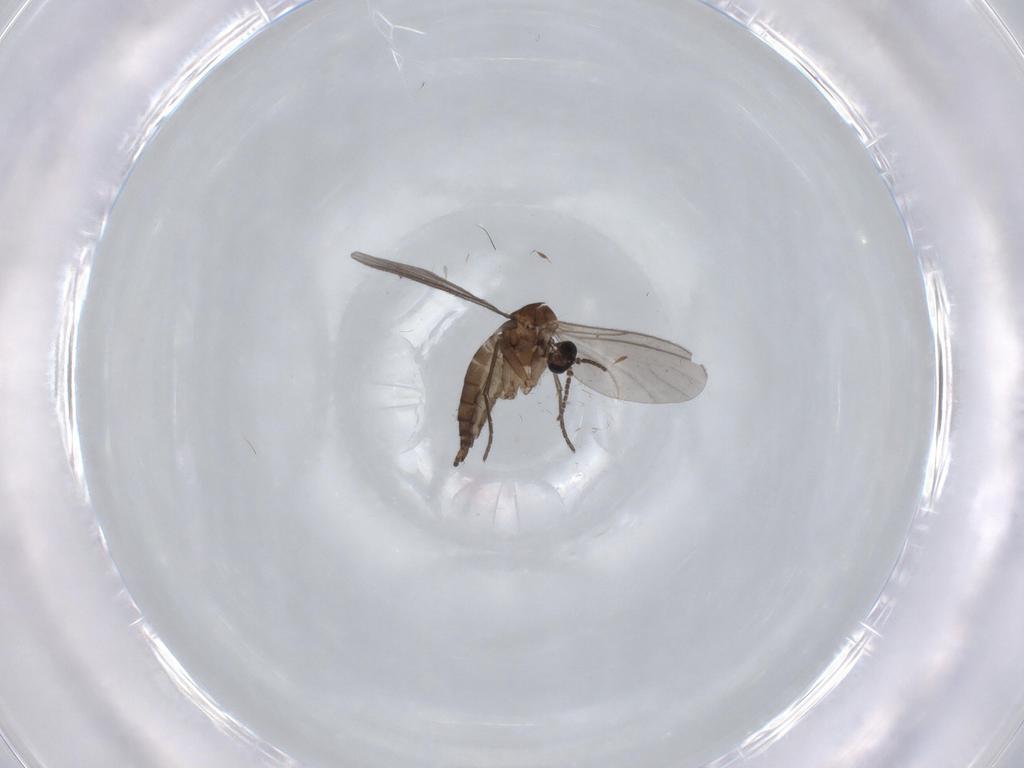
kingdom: Animalia
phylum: Arthropoda
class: Insecta
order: Diptera
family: Sciaridae
